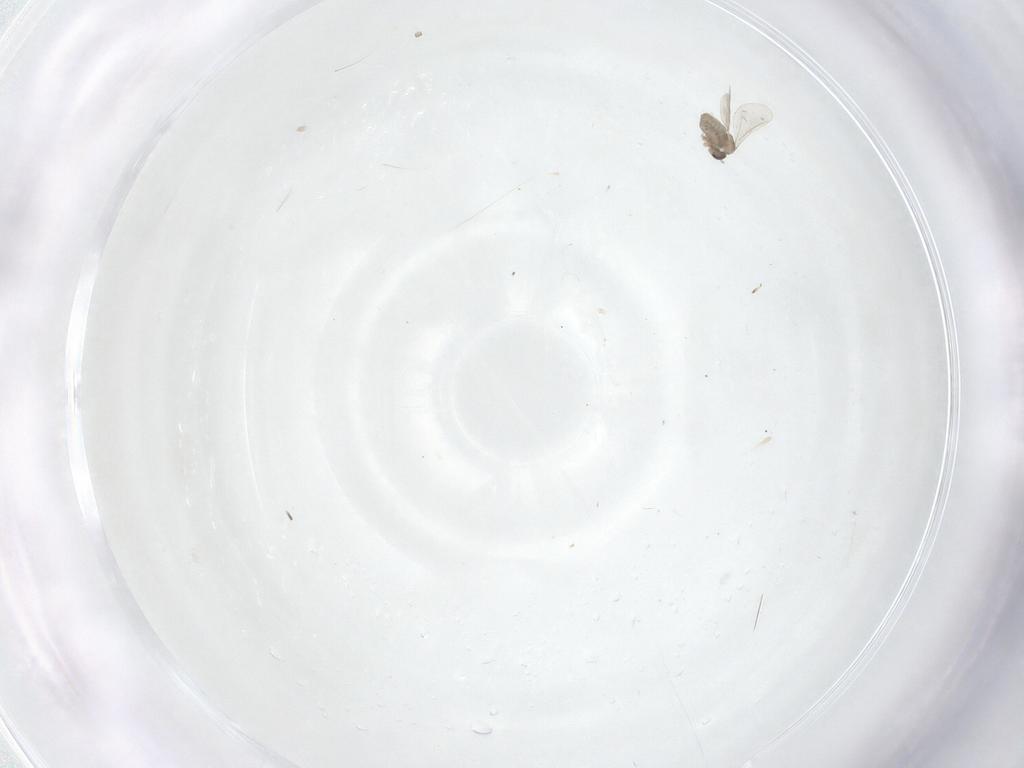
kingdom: Animalia
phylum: Arthropoda
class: Insecta
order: Diptera
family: Cecidomyiidae
